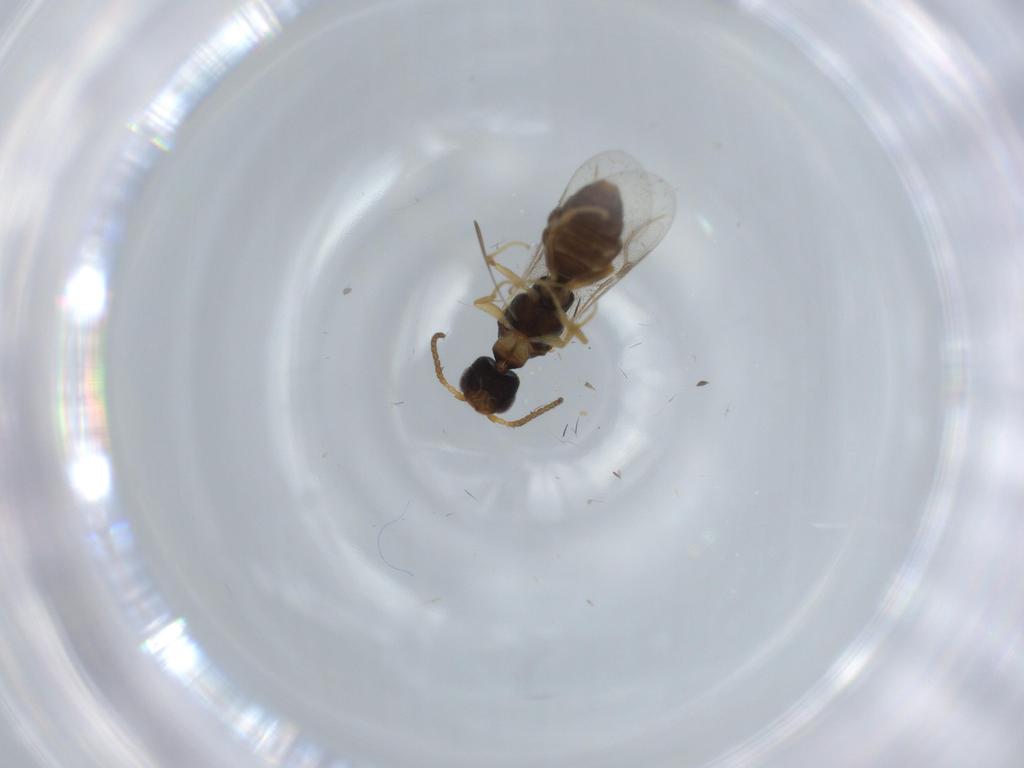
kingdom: Animalia
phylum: Arthropoda
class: Insecta
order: Hymenoptera
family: Bethylidae
